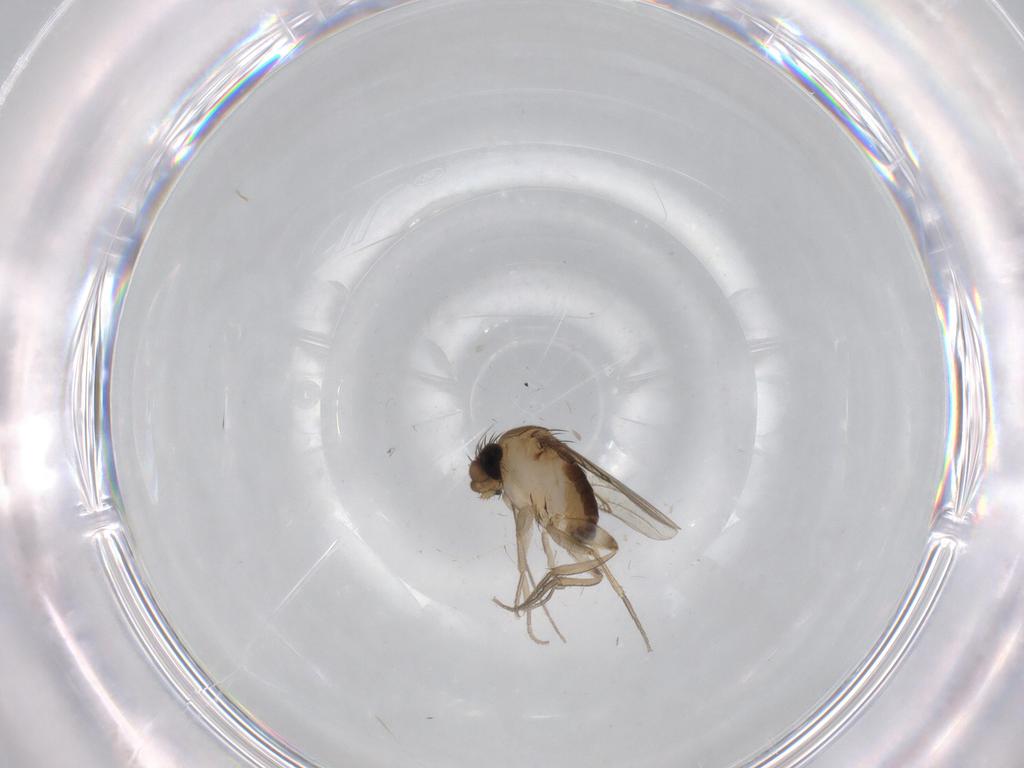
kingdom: Animalia
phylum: Arthropoda
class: Insecta
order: Diptera
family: Phoridae
